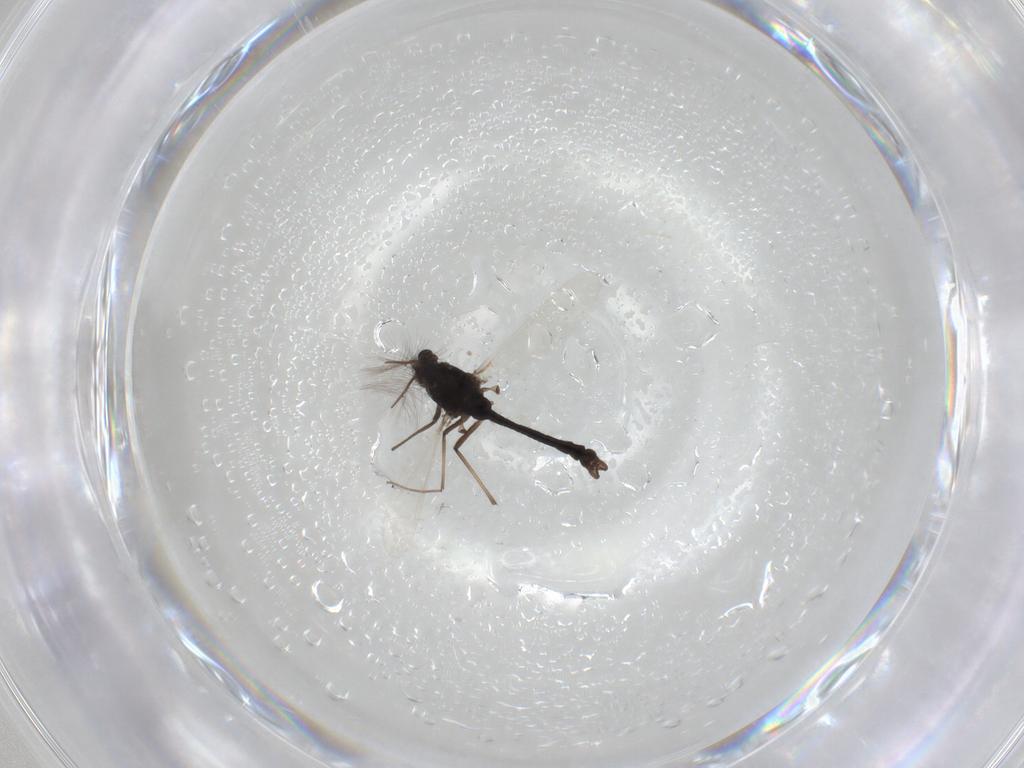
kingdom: Animalia
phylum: Arthropoda
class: Insecta
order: Diptera
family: Chironomidae
